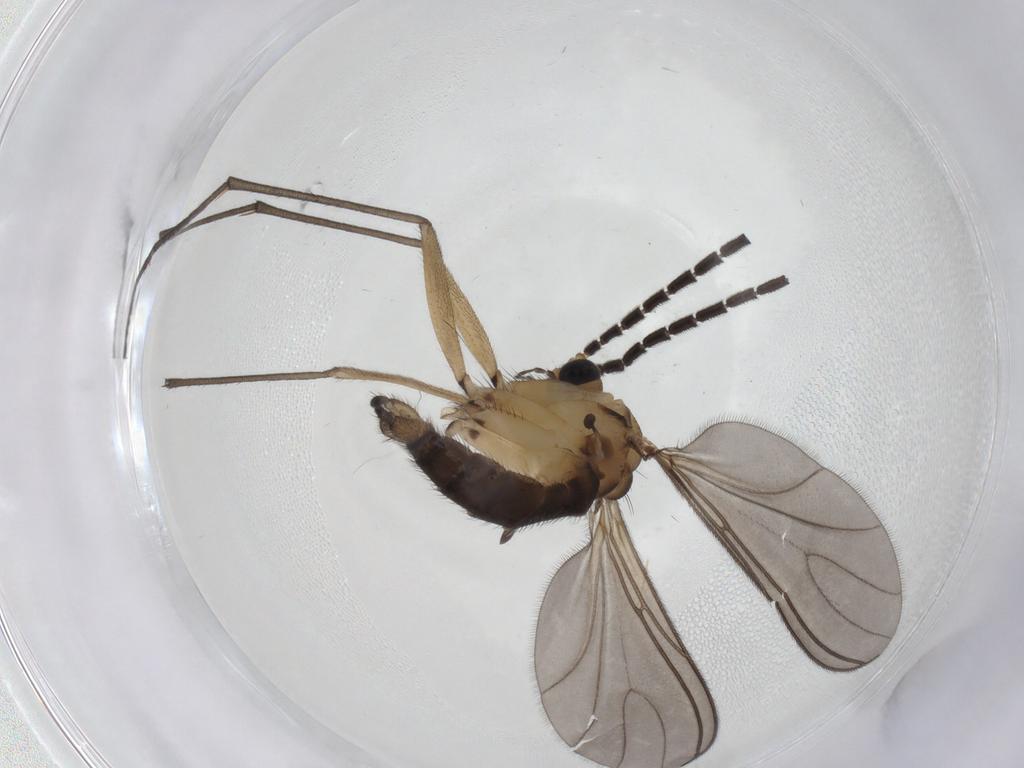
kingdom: Animalia
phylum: Arthropoda
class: Insecta
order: Diptera
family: Sciaridae
